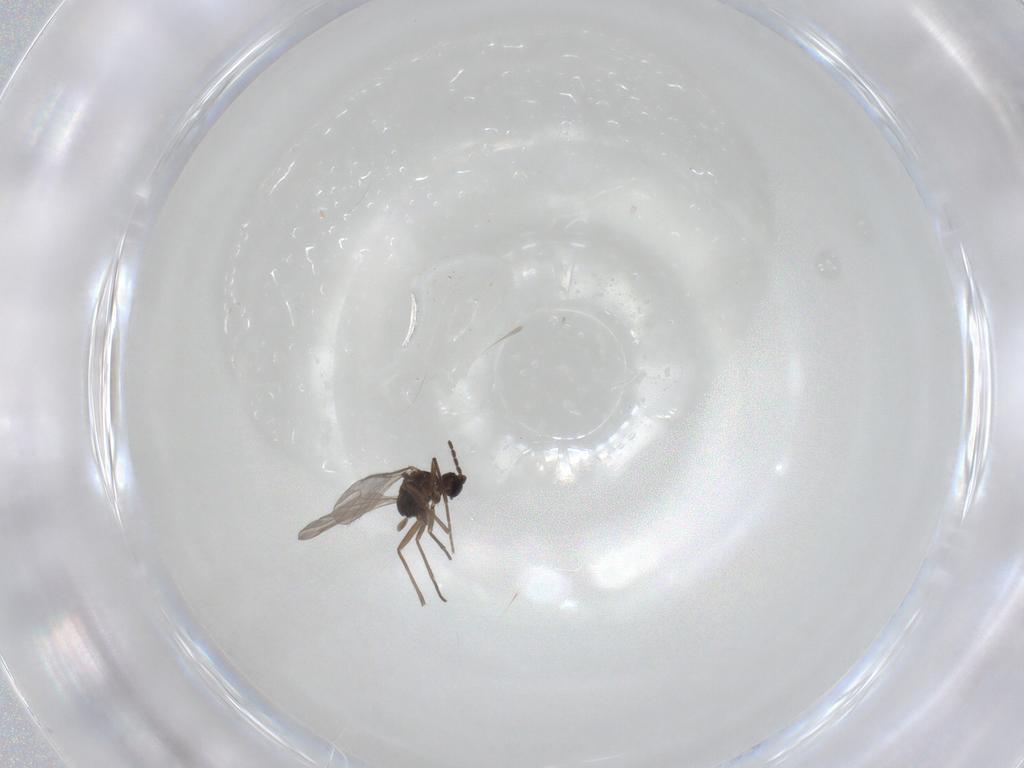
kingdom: Animalia
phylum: Arthropoda
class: Insecta
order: Diptera
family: Sciaridae
